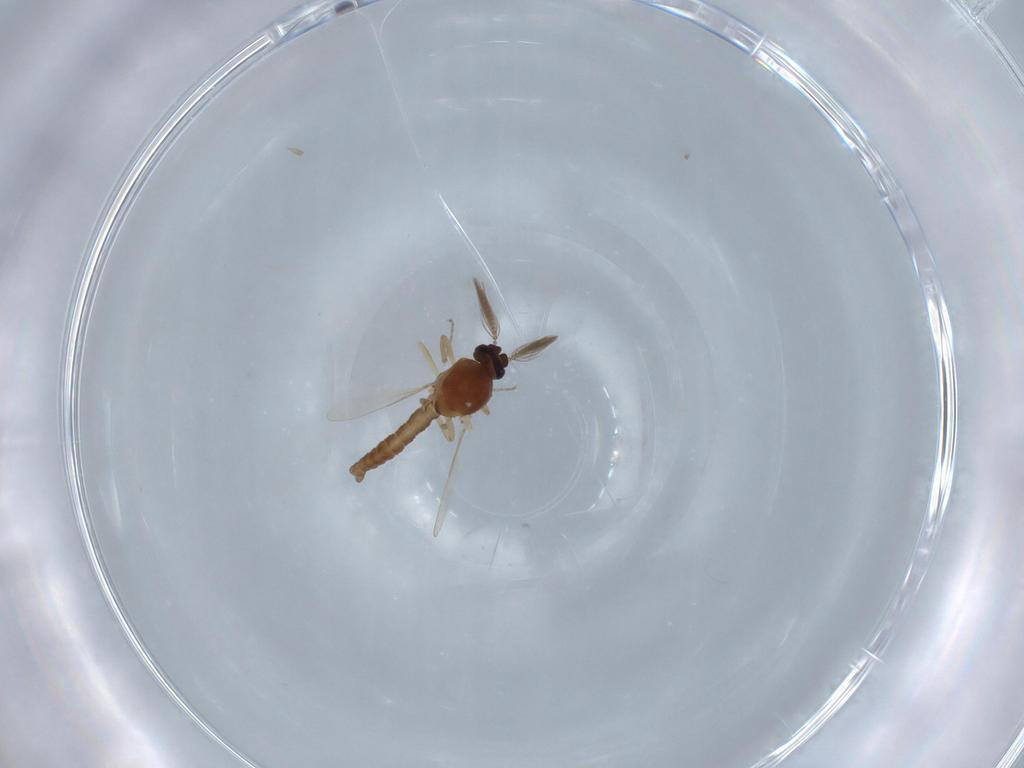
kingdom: Animalia
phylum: Arthropoda
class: Insecta
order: Diptera
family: Ceratopogonidae
